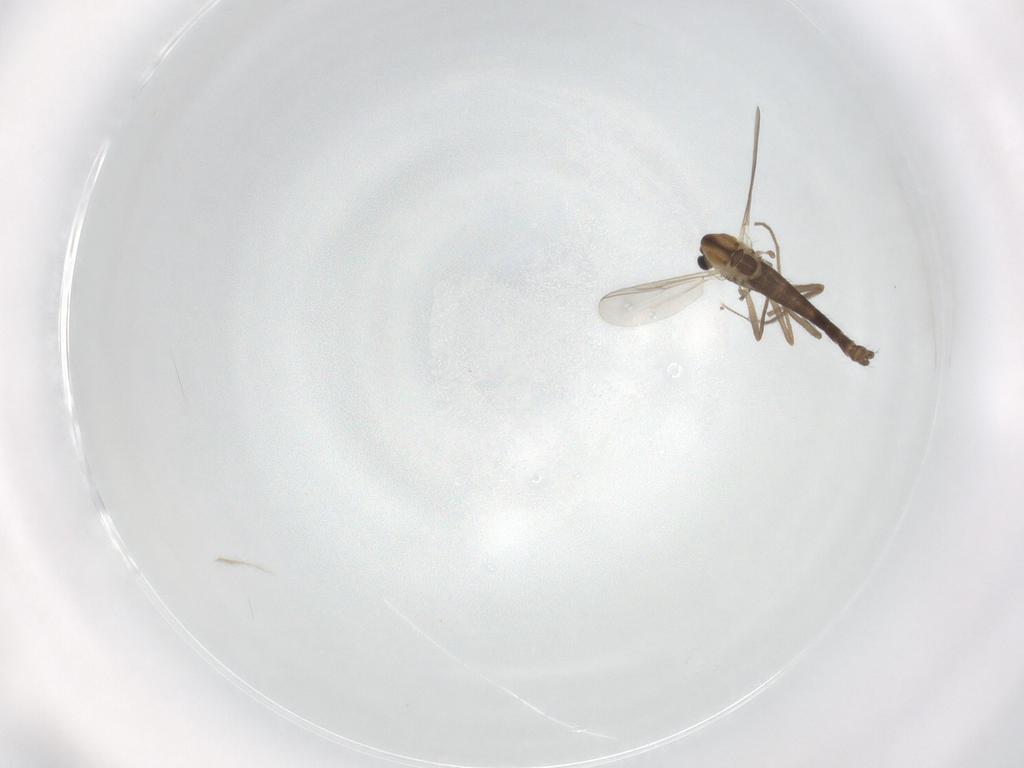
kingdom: Animalia
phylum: Arthropoda
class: Insecta
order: Diptera
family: Chironomidae
